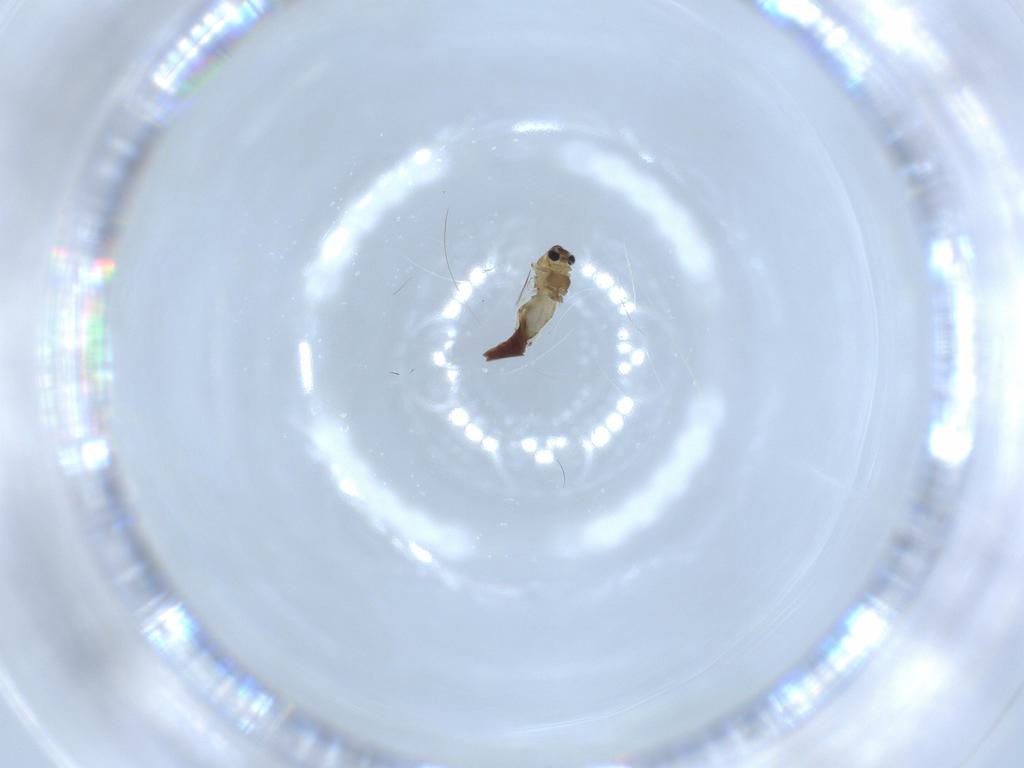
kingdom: Animalia
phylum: Arthropoda
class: Insecta
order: Diptera
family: Chironomidae
